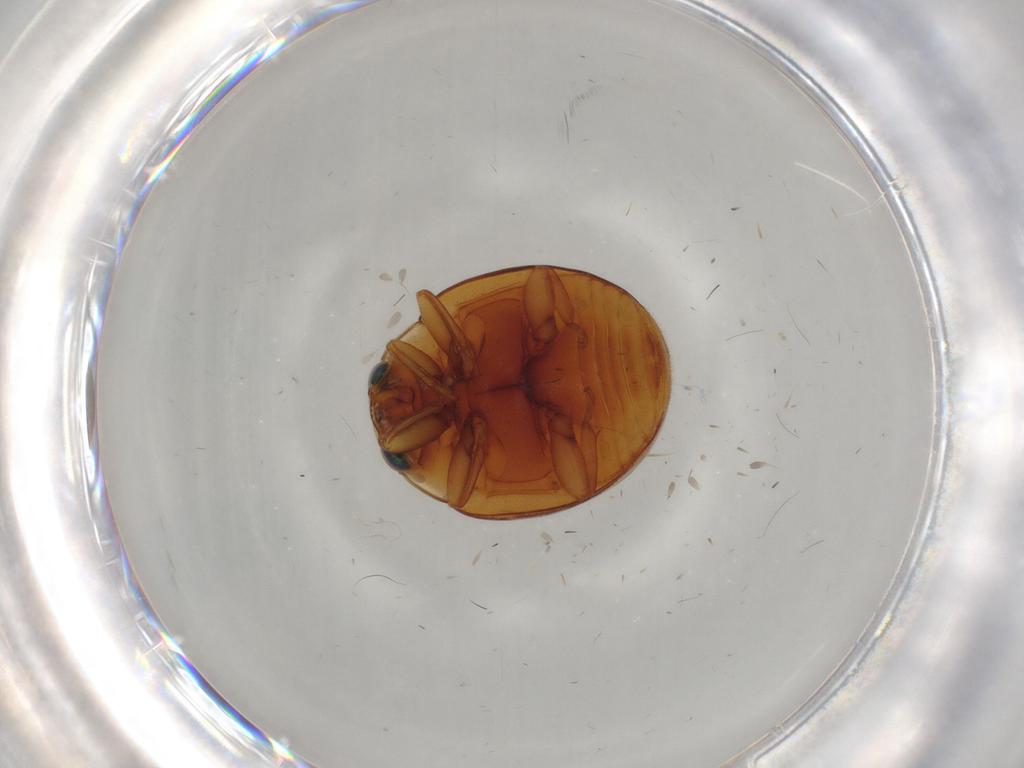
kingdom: Animalia
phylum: Arthropoda
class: Insecta
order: Coleoptera
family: Coccinellidae
